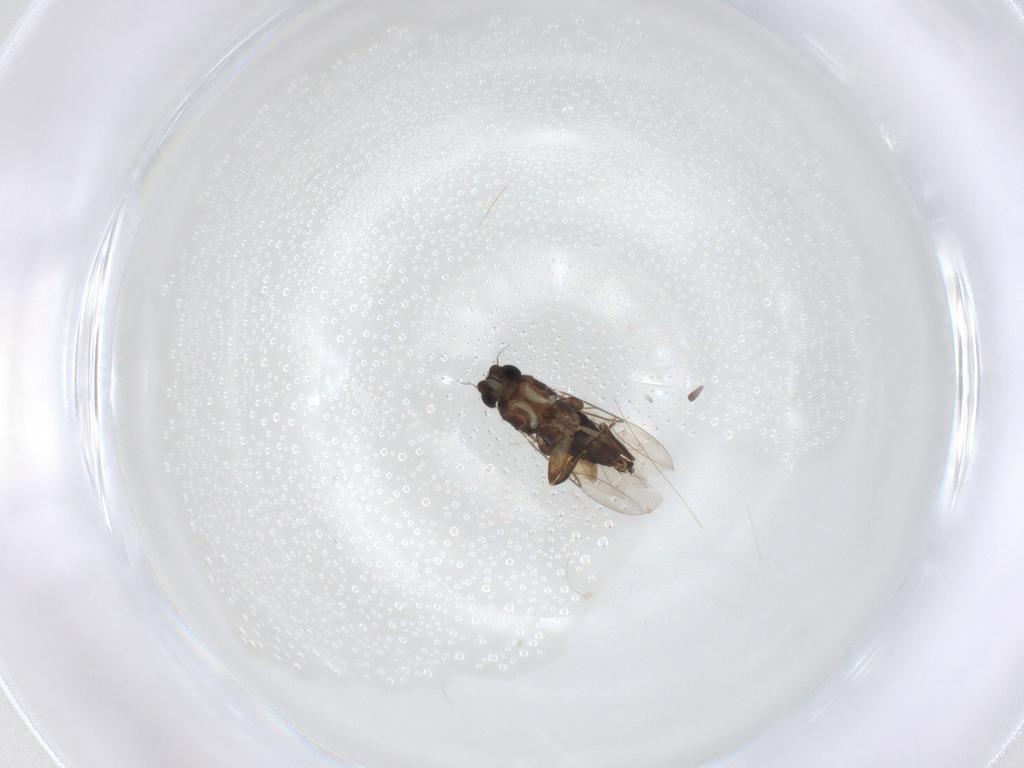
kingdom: Animalia
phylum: Arthropoda
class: Insecta
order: Diptera
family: Phoridae
